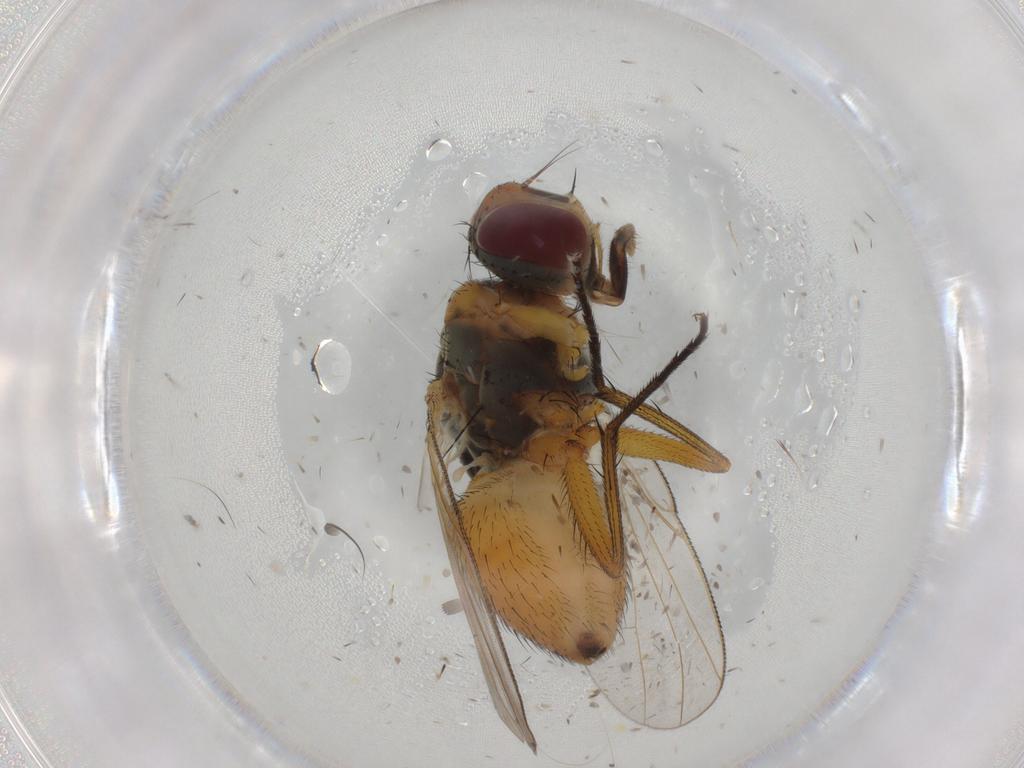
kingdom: Animalia
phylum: Arthropoda
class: Insecta
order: Diptera
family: Muscidae
